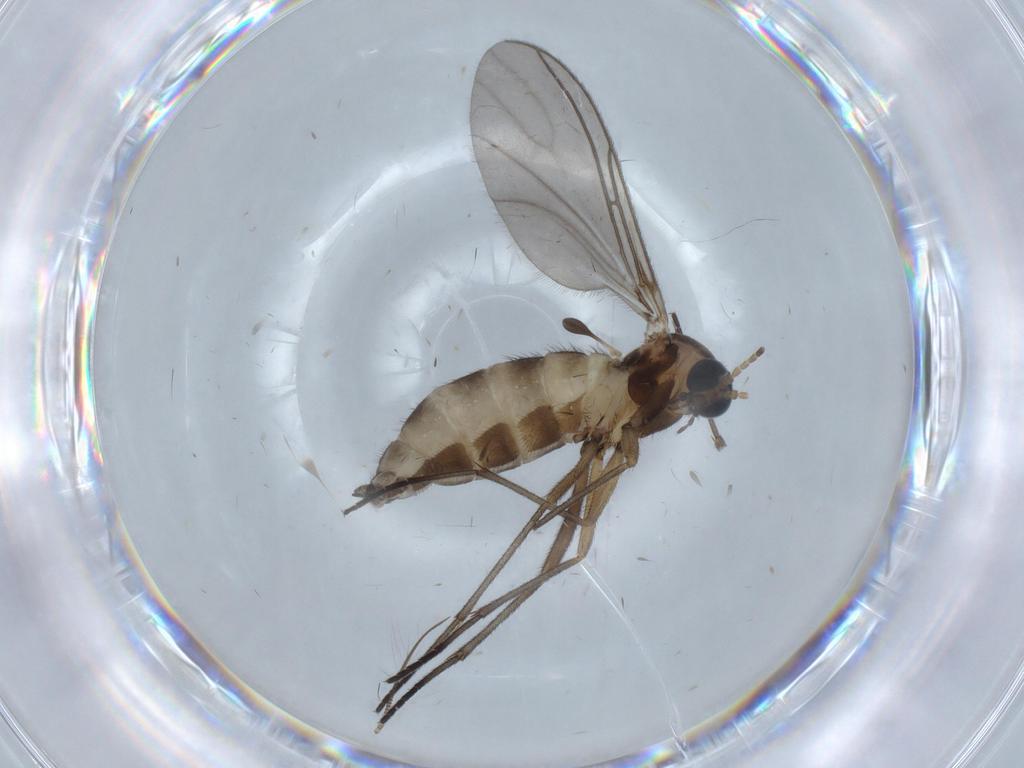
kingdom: Animalia
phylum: Arthropoda
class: Insecta
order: Diptera
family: Sciaridae
